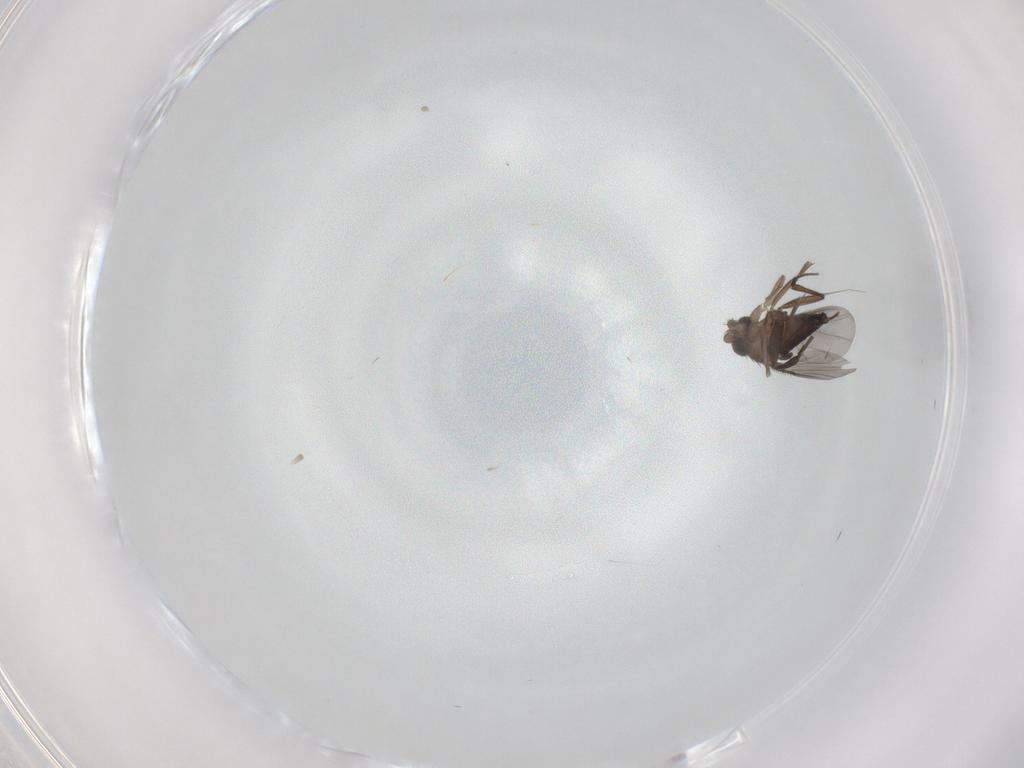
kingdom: Animalia
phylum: Arthropoda
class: Insecta
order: Diptera
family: Phoridae
